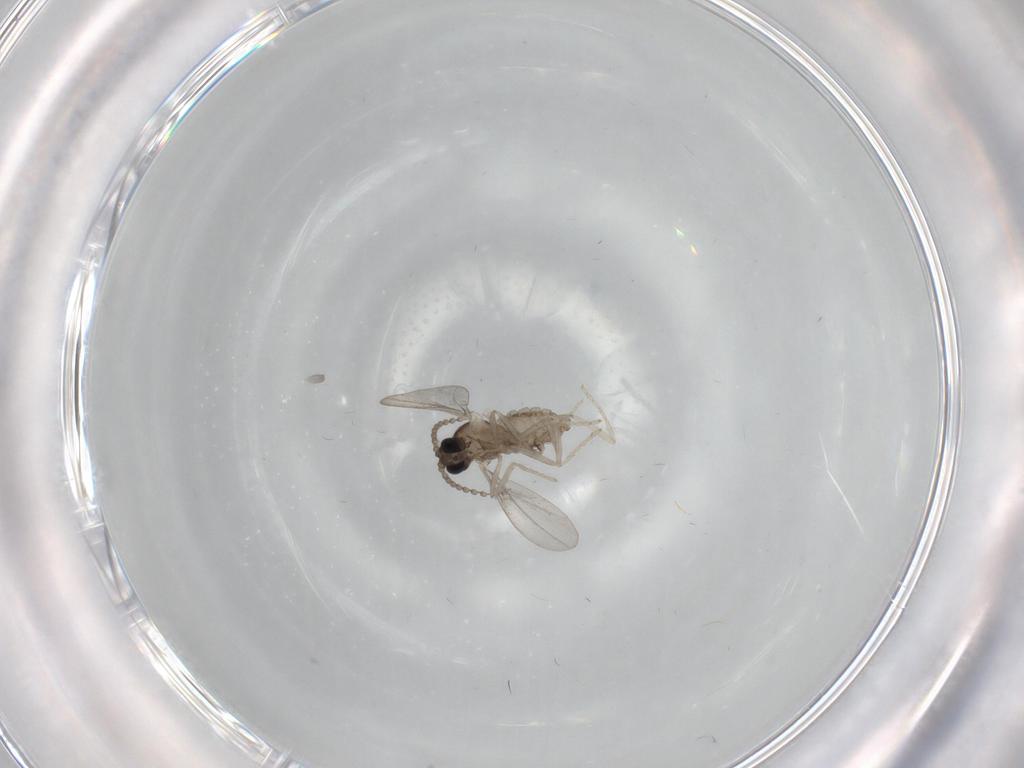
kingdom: Animalia
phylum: Arthropoda
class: Insecta
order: Diptera
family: Cecidomyiidae
